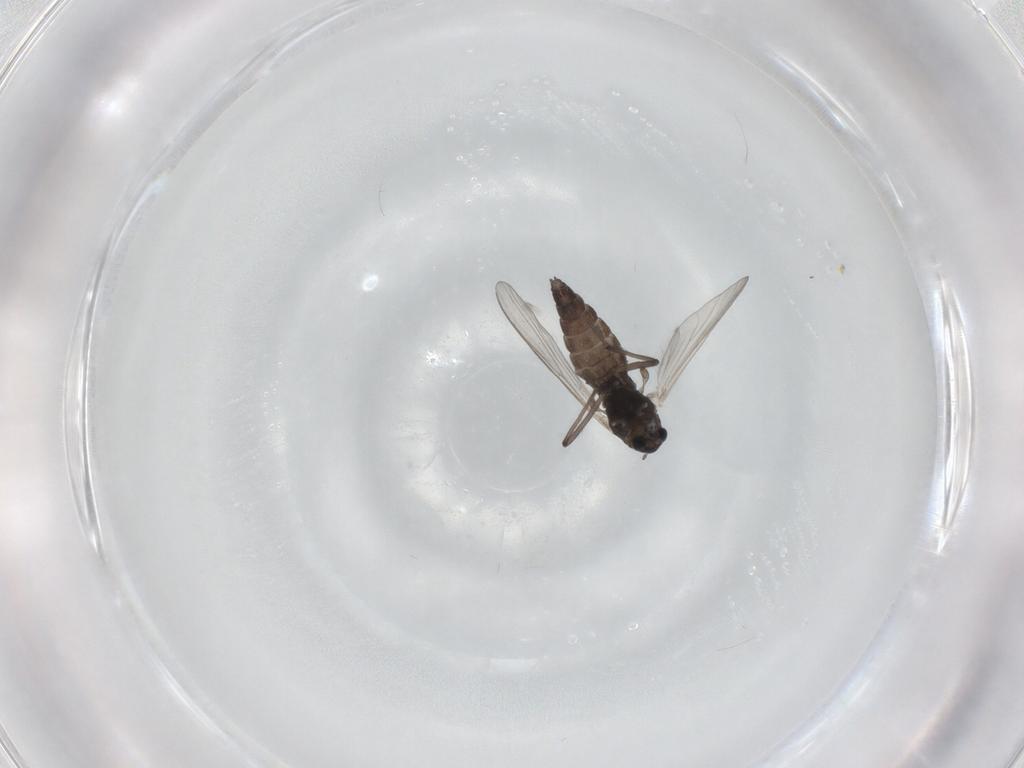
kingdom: Animalia
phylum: Arthropoda
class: Insecta
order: Diptera
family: Chironomidae
